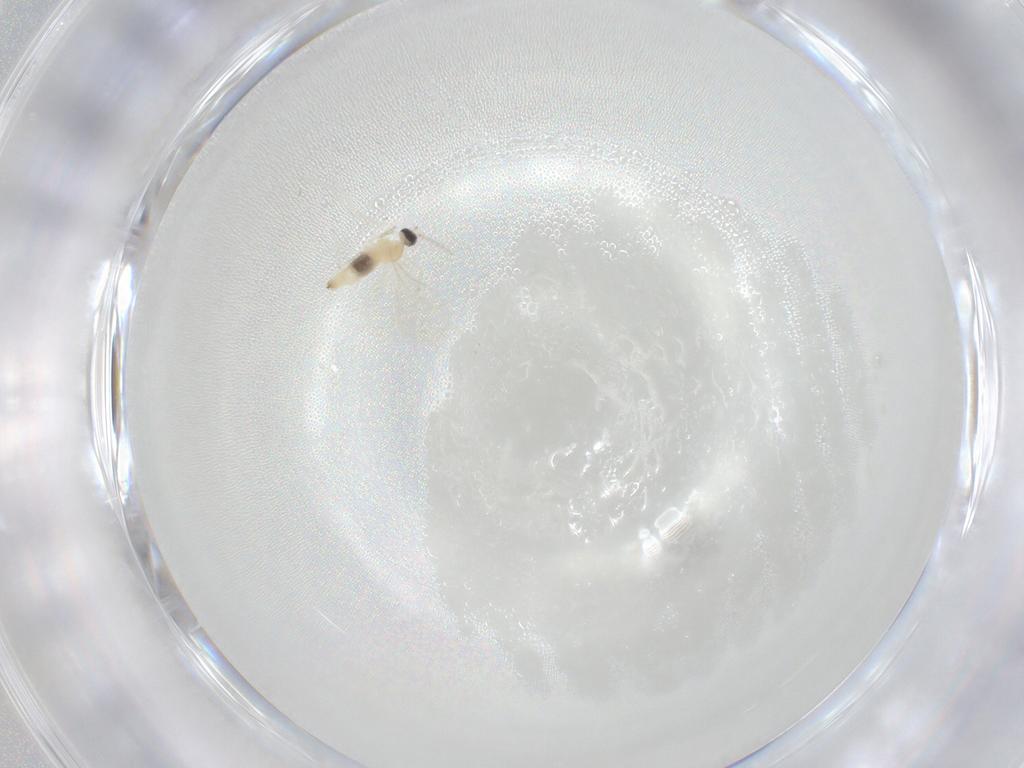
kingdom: Animalia
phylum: Arthropoda
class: Insecta
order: Diptera
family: Cecidomyiidae
